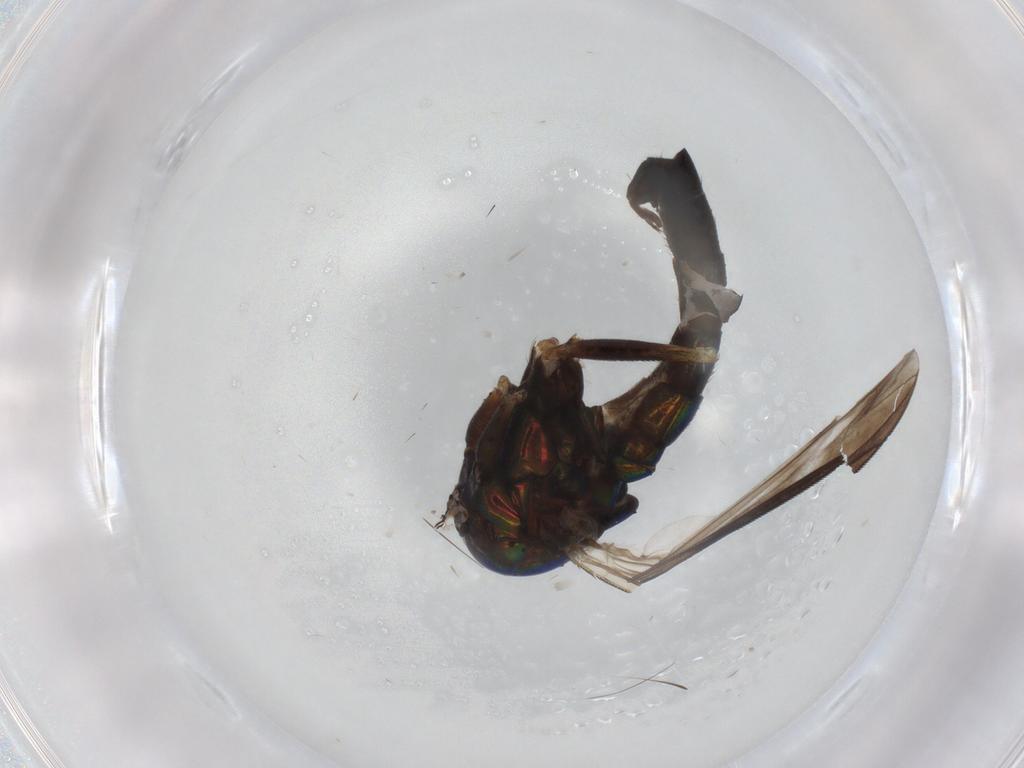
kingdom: Animalia
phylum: Arthropoda
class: Insecta
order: Diptera
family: Dolichopodidae
